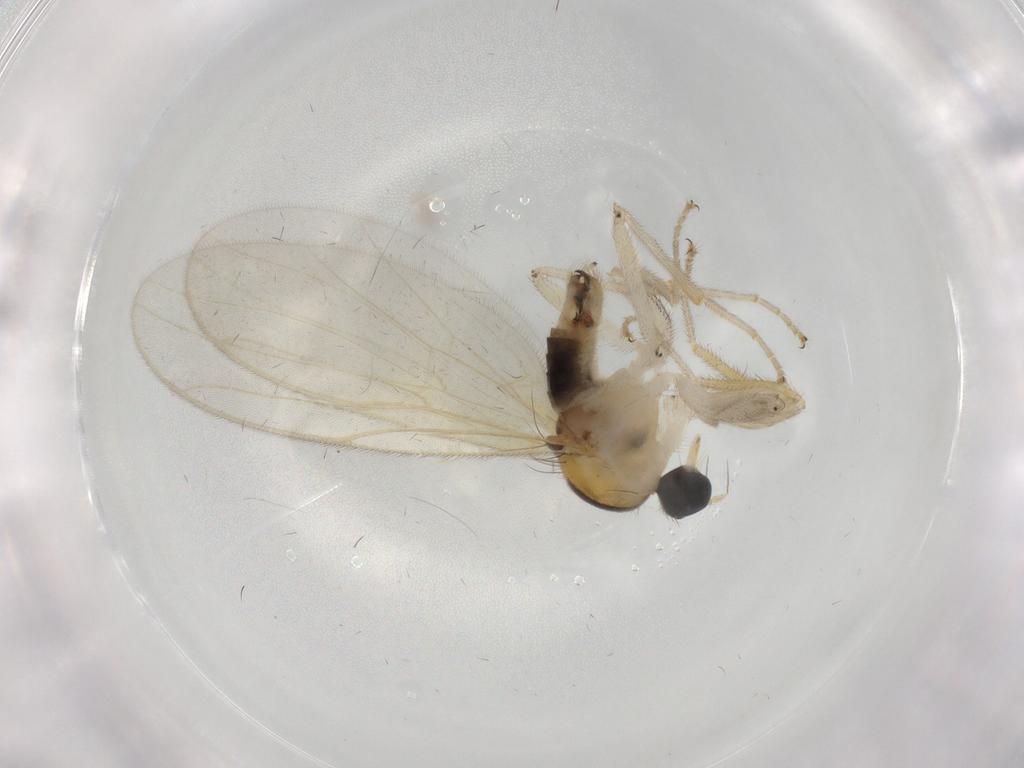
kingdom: Animalia
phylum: Arthropoda
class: Insecta
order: Diptera
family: Hybotidae
